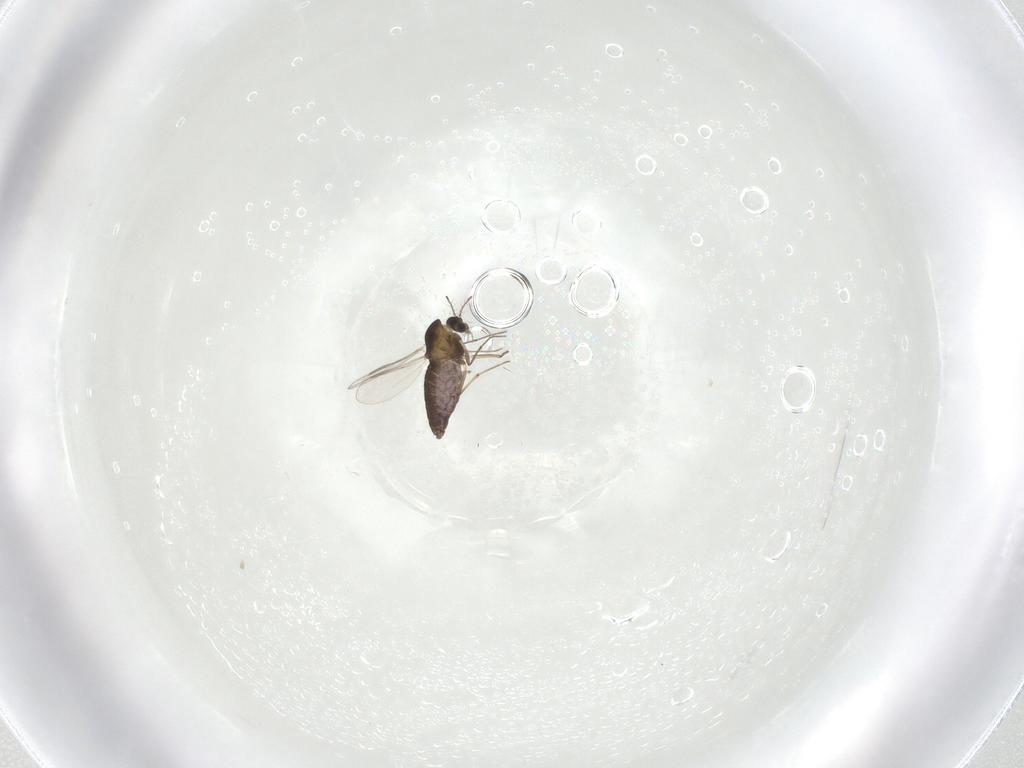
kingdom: Animalia
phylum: Arthropoda
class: Insecta
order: Diptera
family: Chironomidae
